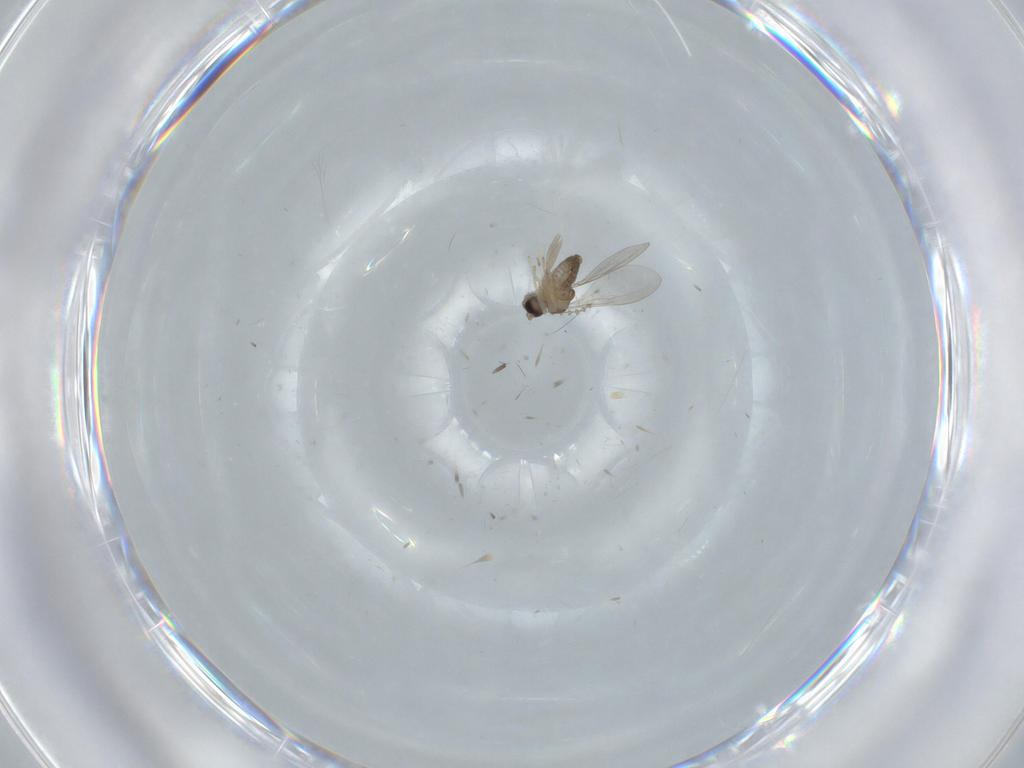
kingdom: Animalia
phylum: Arthropoda
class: Insecta
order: Diptera
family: Cecidomyiidae
